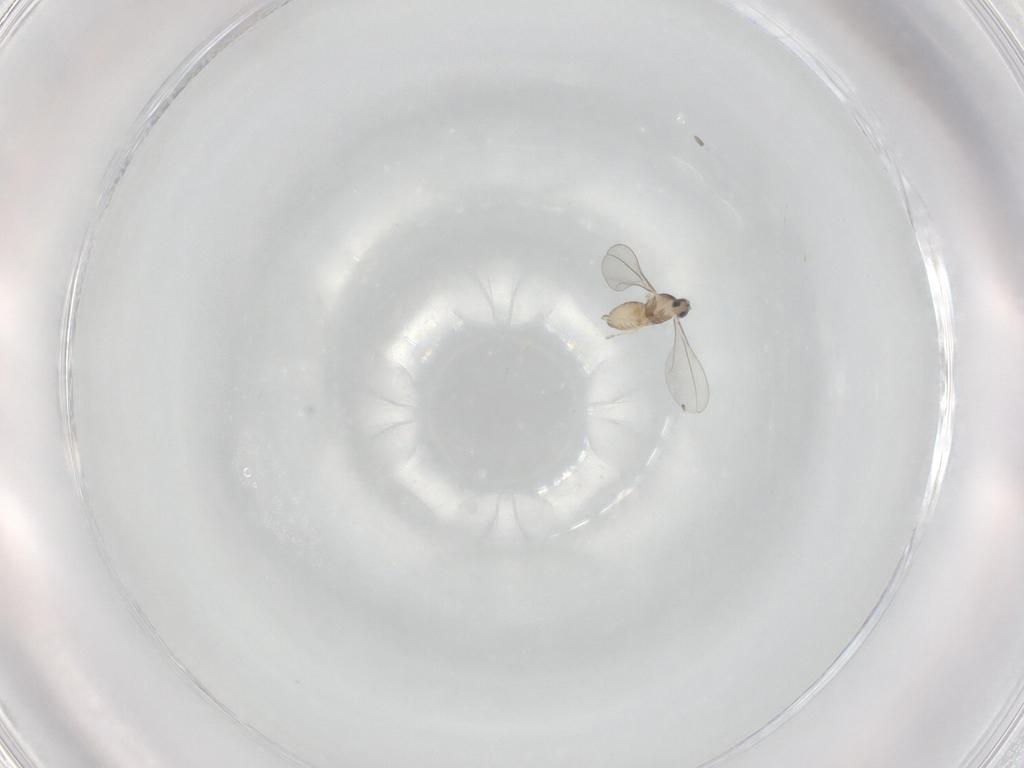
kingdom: Animalia
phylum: Arthropoda
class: Insecta
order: Diptera
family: Cecidomyiidae
